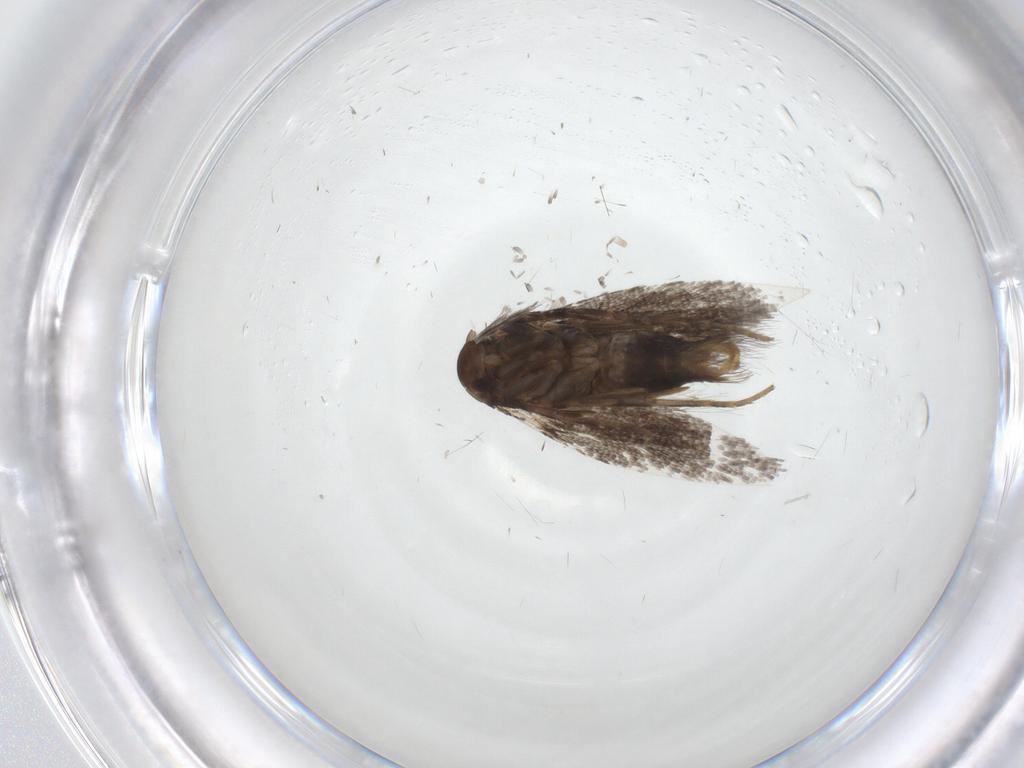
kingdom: Animalia
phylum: Arthropoda
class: Insecta
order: Lepidoptera
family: Elachistidae
